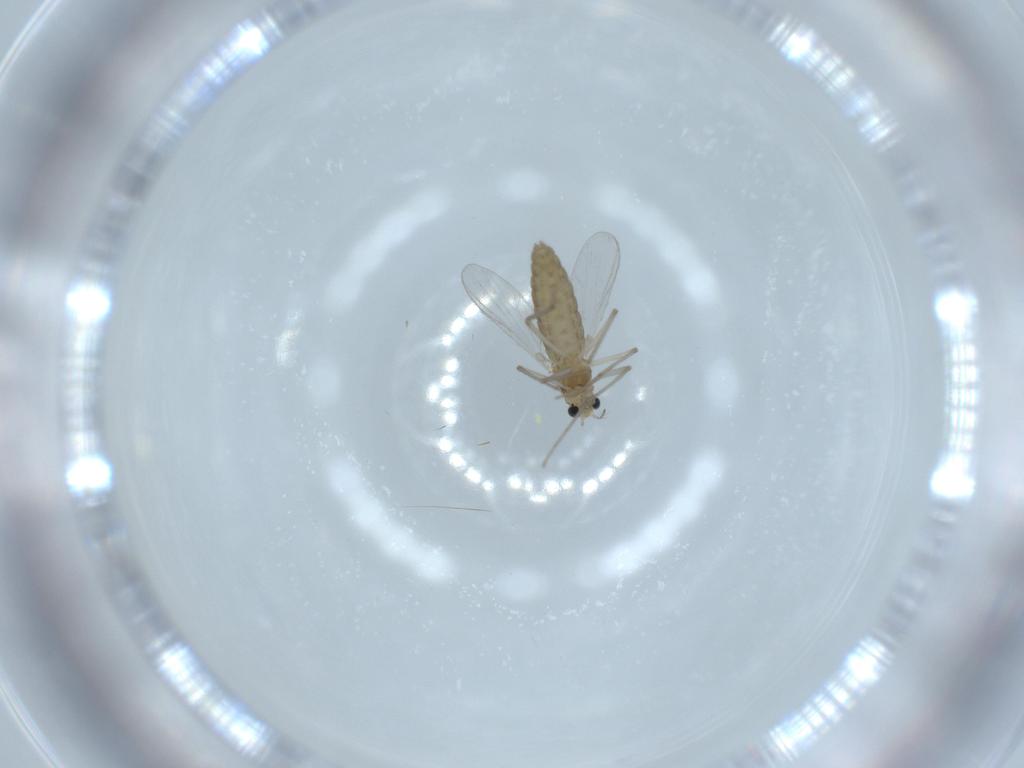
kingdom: Animalia
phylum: Arthropoda
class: Insecta
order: Diptera
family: Chironomidae
